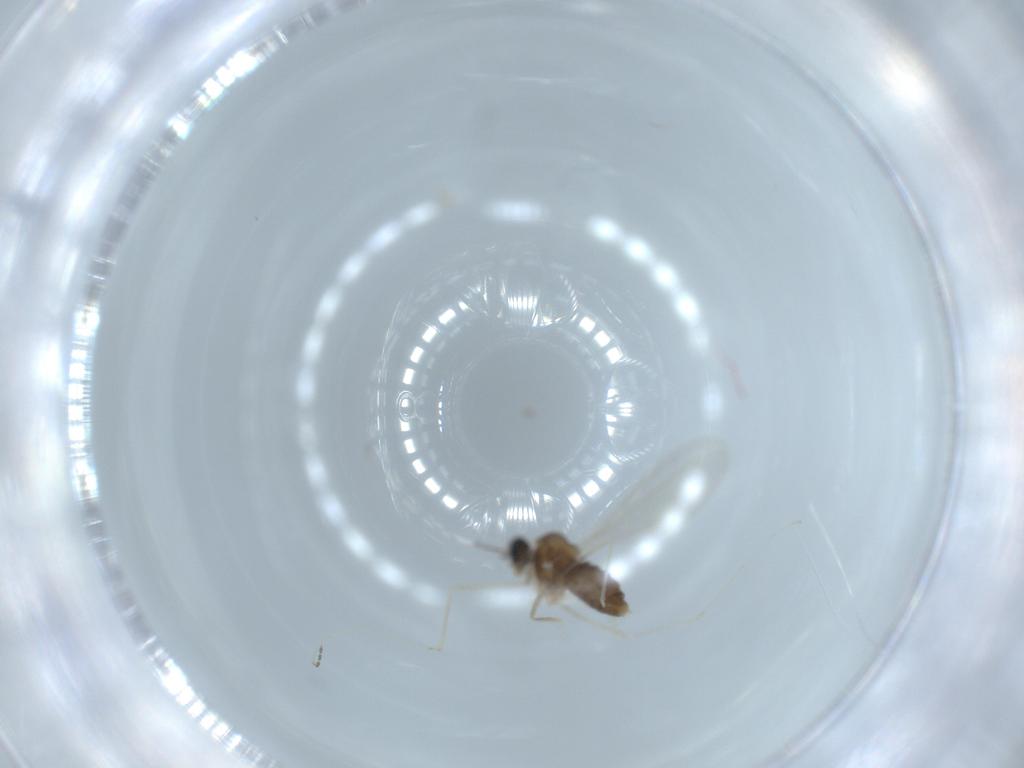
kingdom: Animalia
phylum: Arthropoda
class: Insecta
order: Diptera
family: Cecidomyiidae
